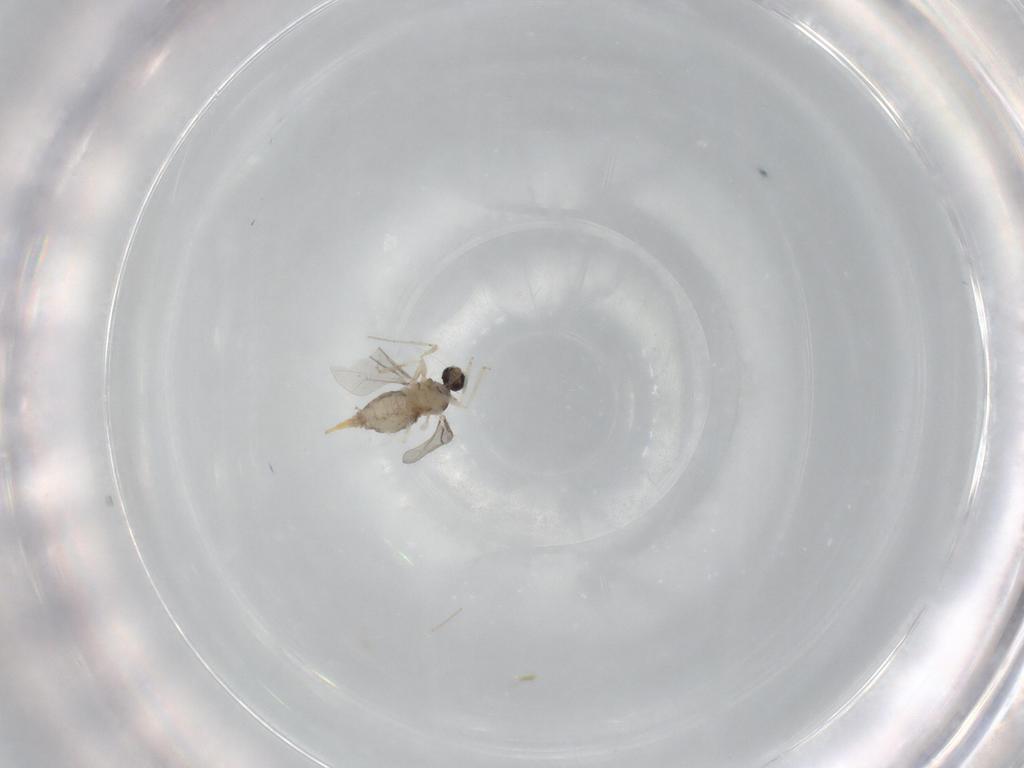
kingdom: Animalia
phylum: Arthropoda
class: Insecta
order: Diptera
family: Cecidomyiidae
